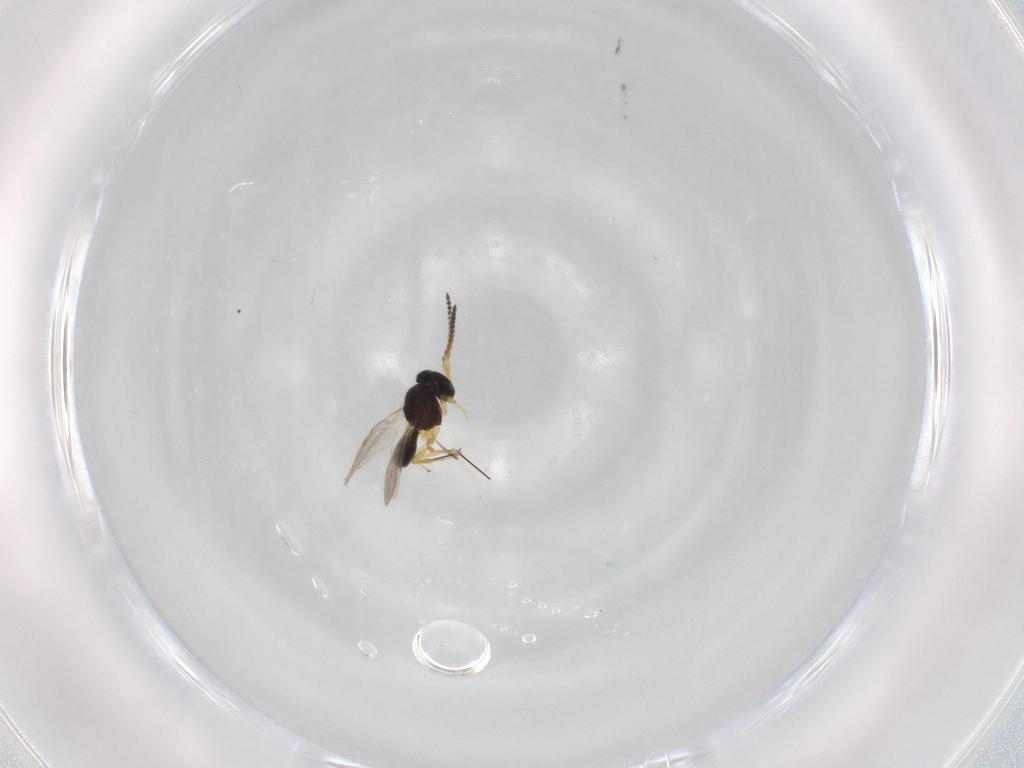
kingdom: Animalia
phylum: Arthropoda
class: Insecta
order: Hymenoptera
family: Scelionidae
